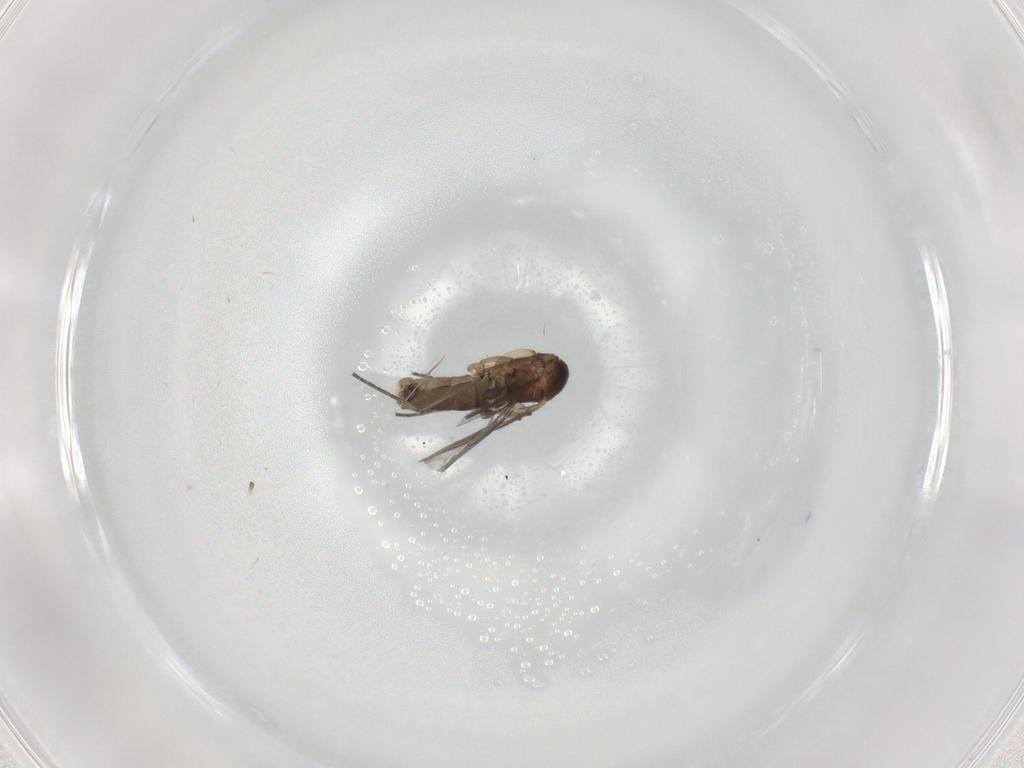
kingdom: Animalia
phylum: Arthropoda
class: Insecta
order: Diptera
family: Sciaridae
